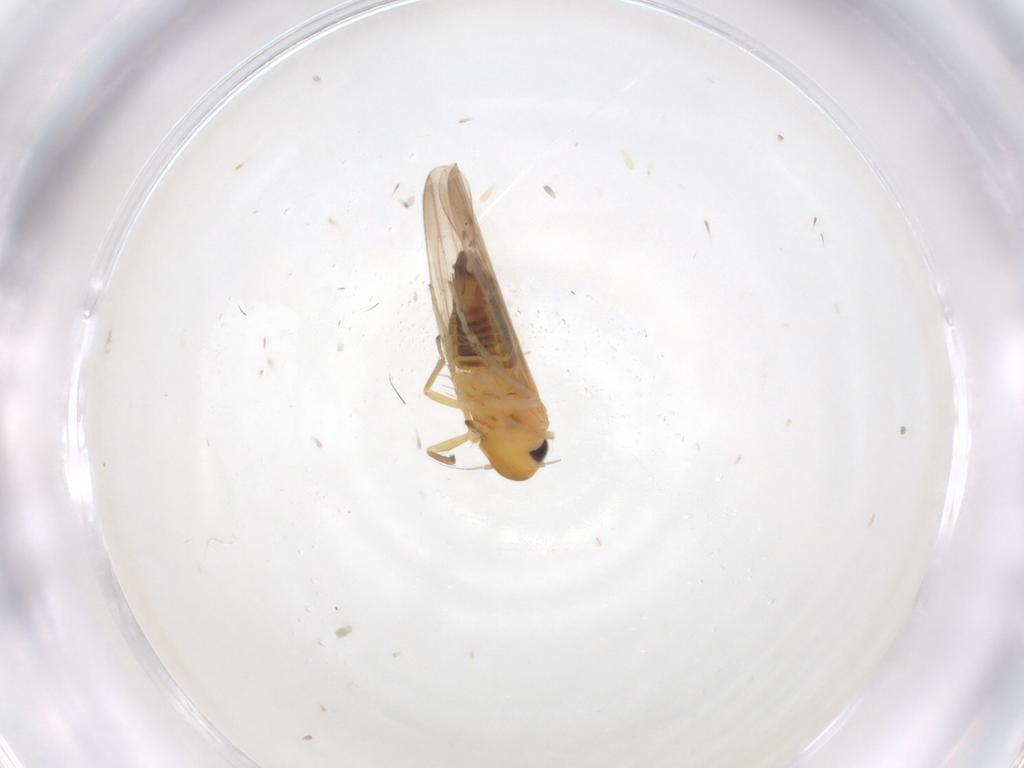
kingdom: Animalia
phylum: Arthropoda
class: Insecta
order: Hemiptera
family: Cicadellidae
